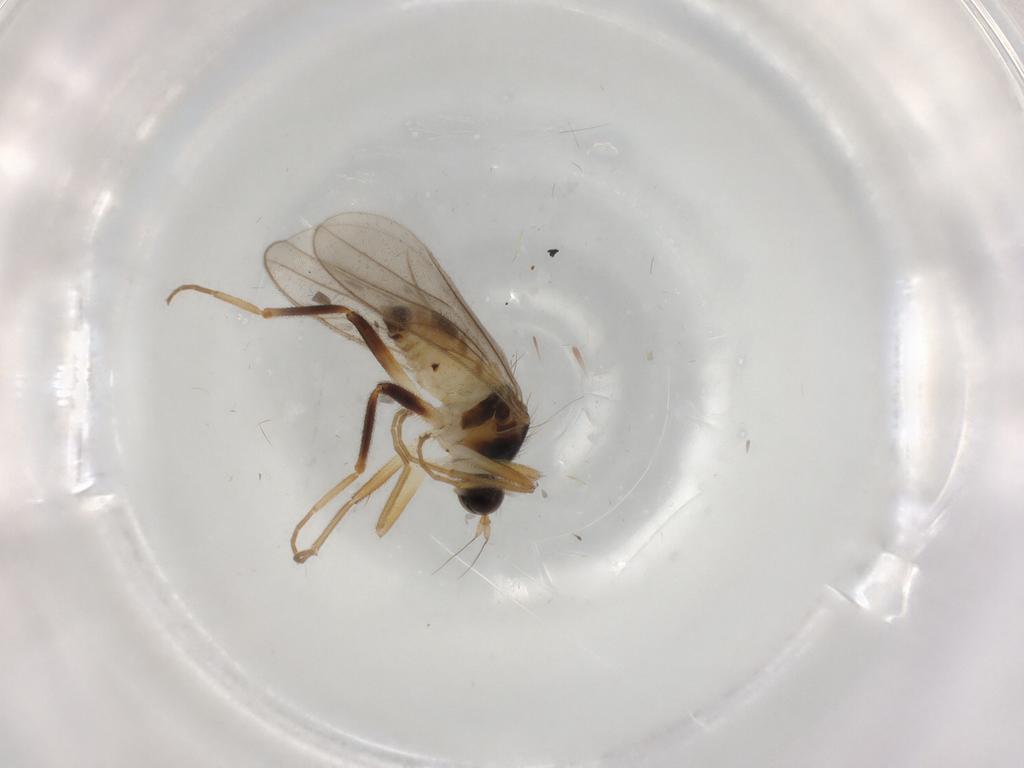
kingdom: Animalia
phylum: Arthropoda
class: Insecta
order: Diptera
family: Hybotidae
